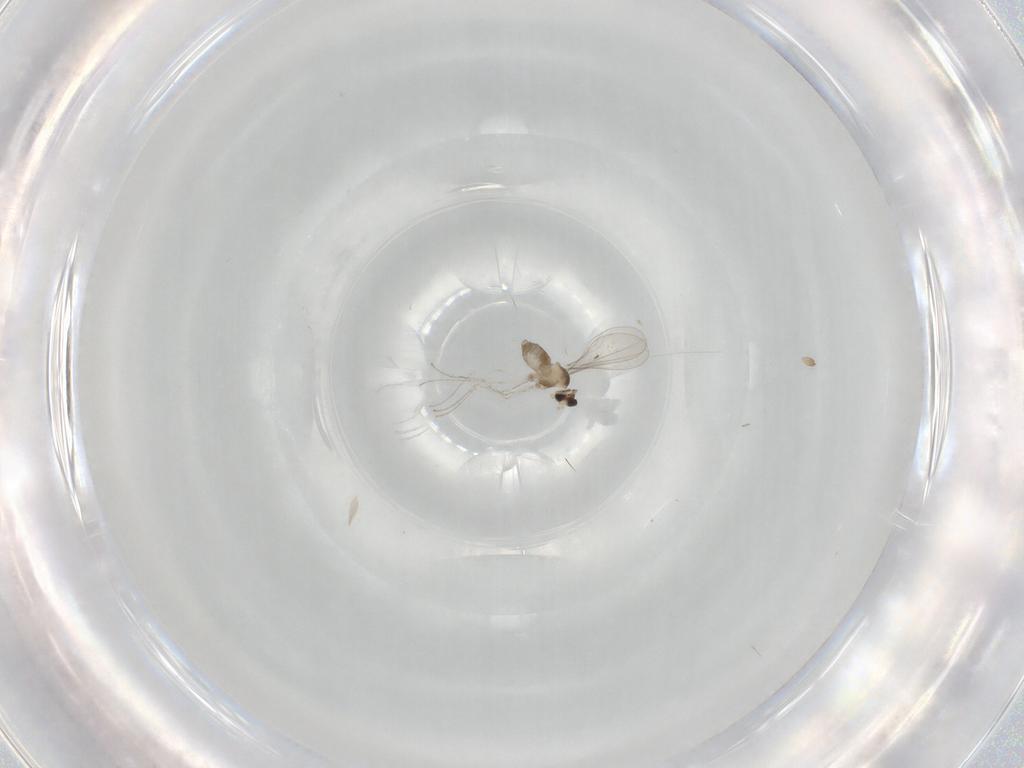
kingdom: Animalia
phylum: Arthropoda
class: Insecta
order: Diptera
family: Cecidomyiidae
